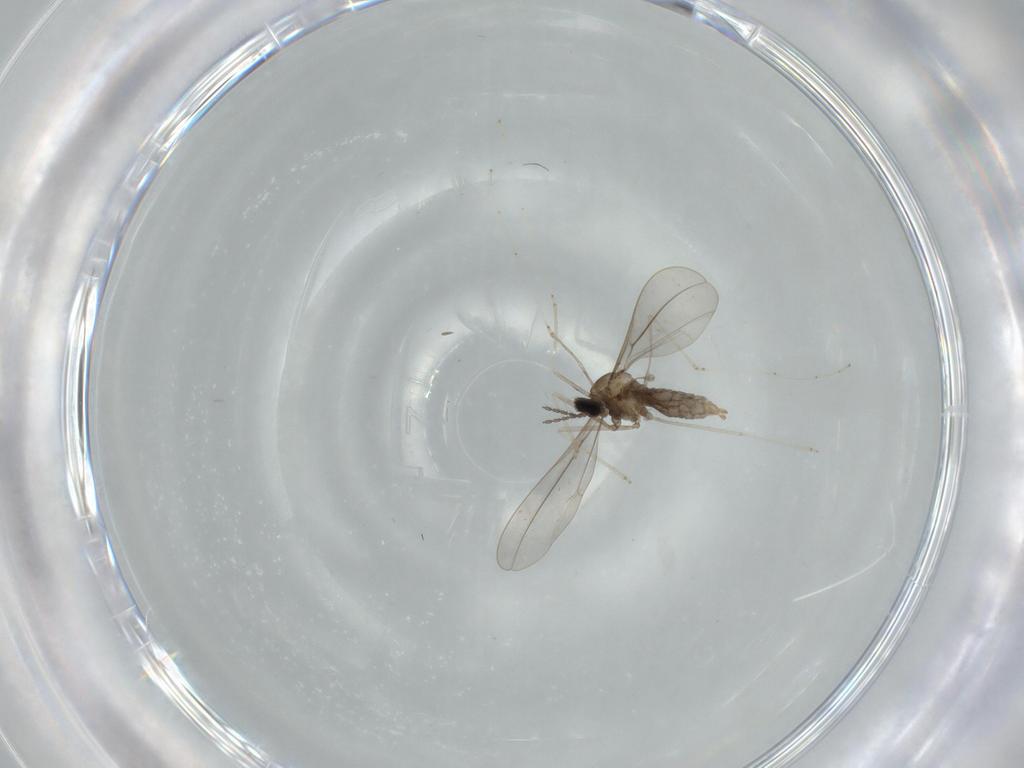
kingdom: Animalia
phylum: Arthropoda
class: Insecta
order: Diptera
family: Cecidomyiidae
